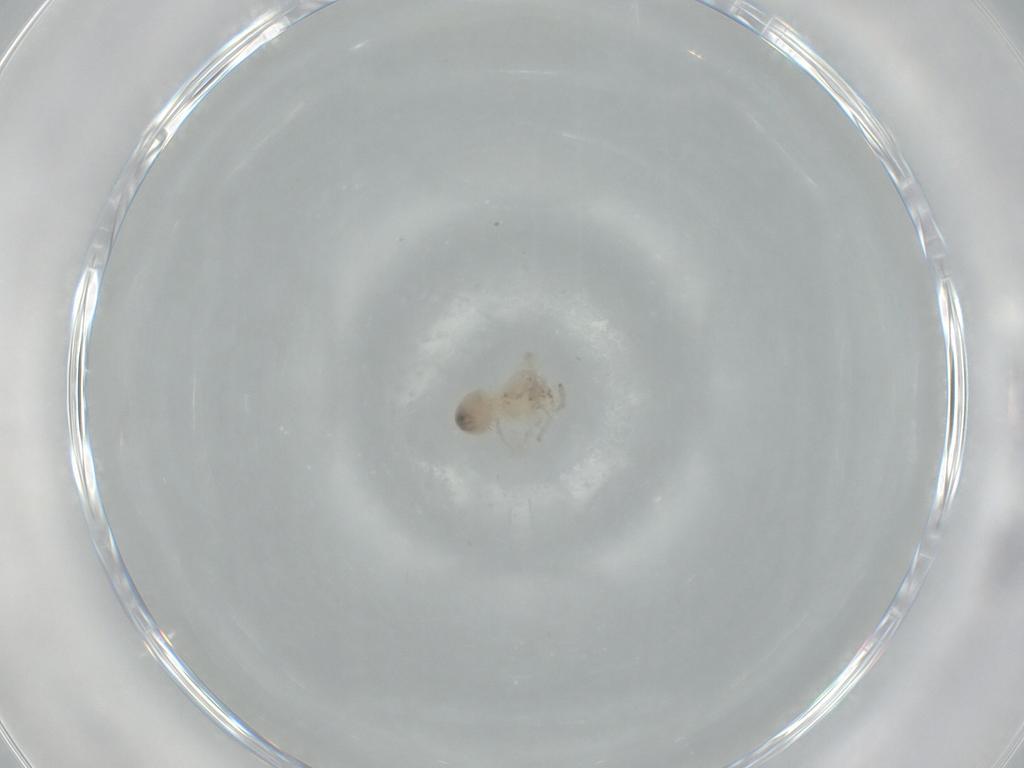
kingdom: Animalia
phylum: Arthropoda
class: Arachnida
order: Araneae
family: Oonopidae
